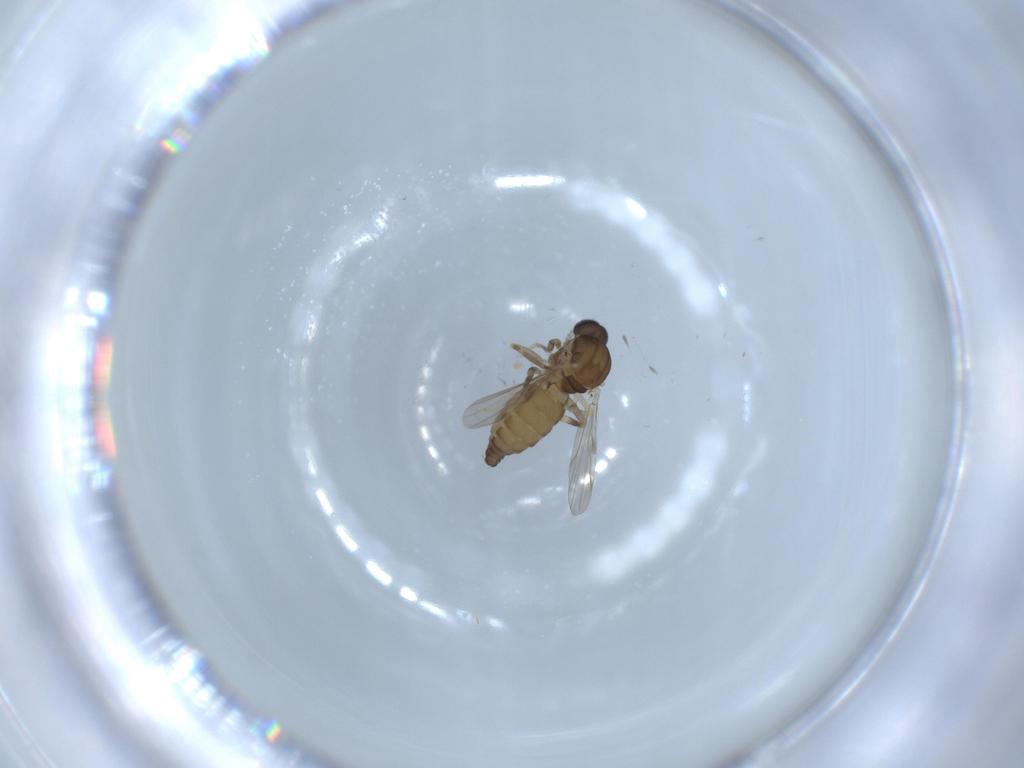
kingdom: Animalia
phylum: Arthropoda
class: Insecta
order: Diptera
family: Ceratopogonidae
